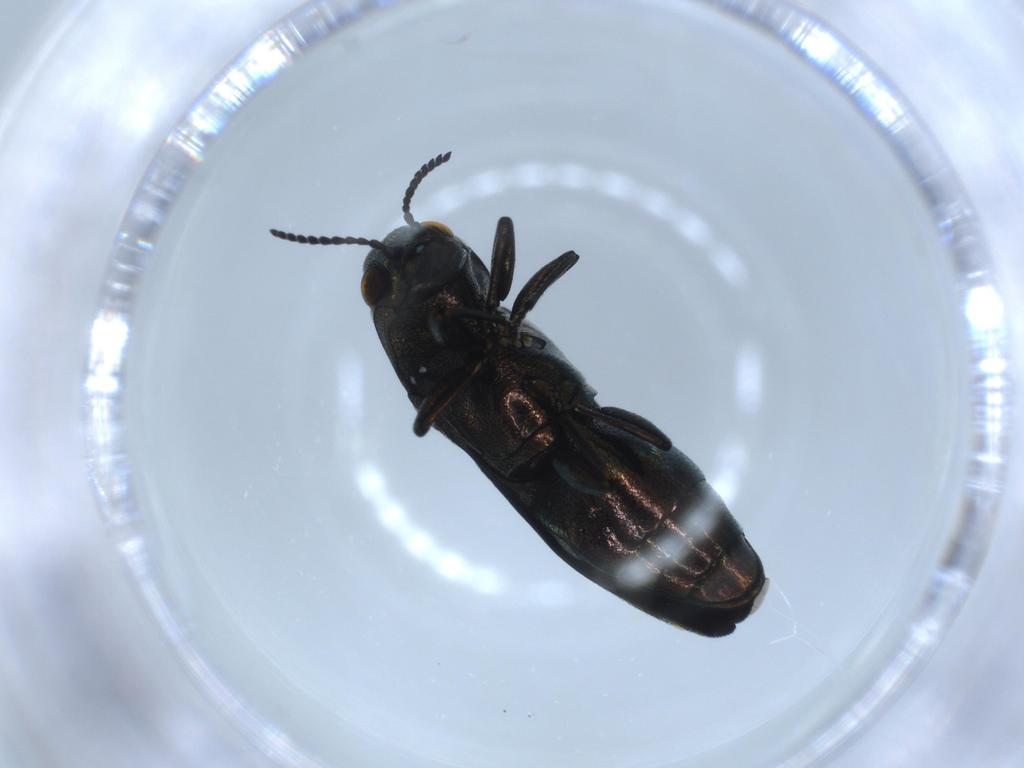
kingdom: Animalia
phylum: Arthropoda
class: Insecta
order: Coleoptera
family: Buprestidae
